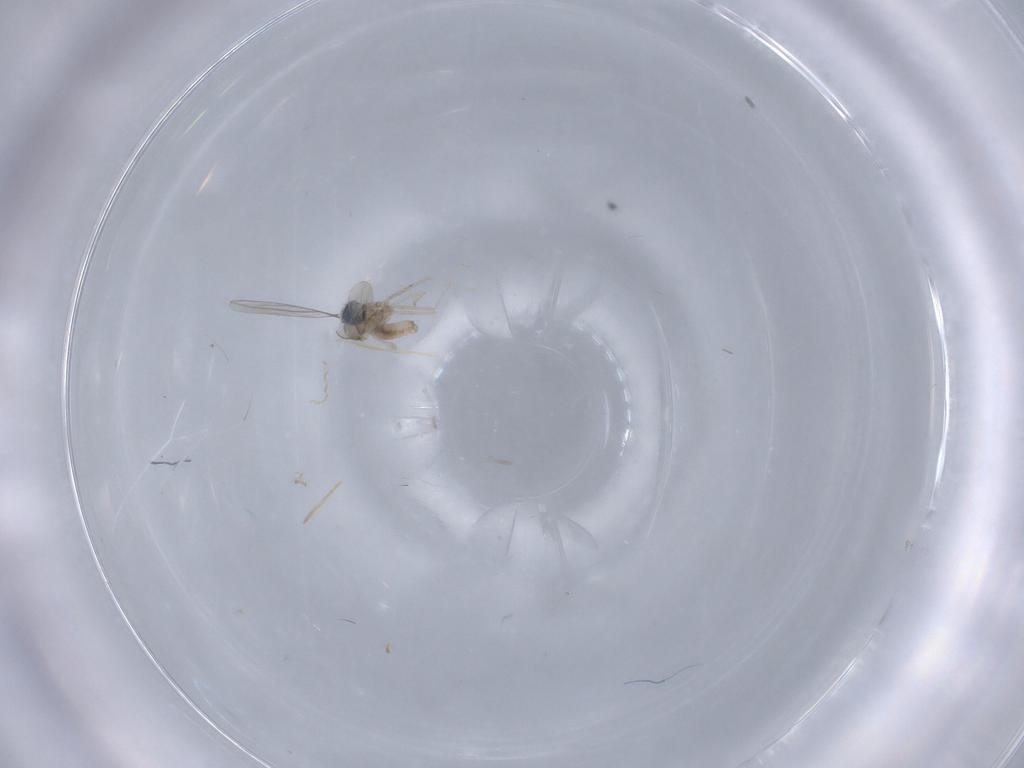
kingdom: Animalia
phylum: Arthropoda
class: Insecta
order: Diptera
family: Cecidomyiidae
